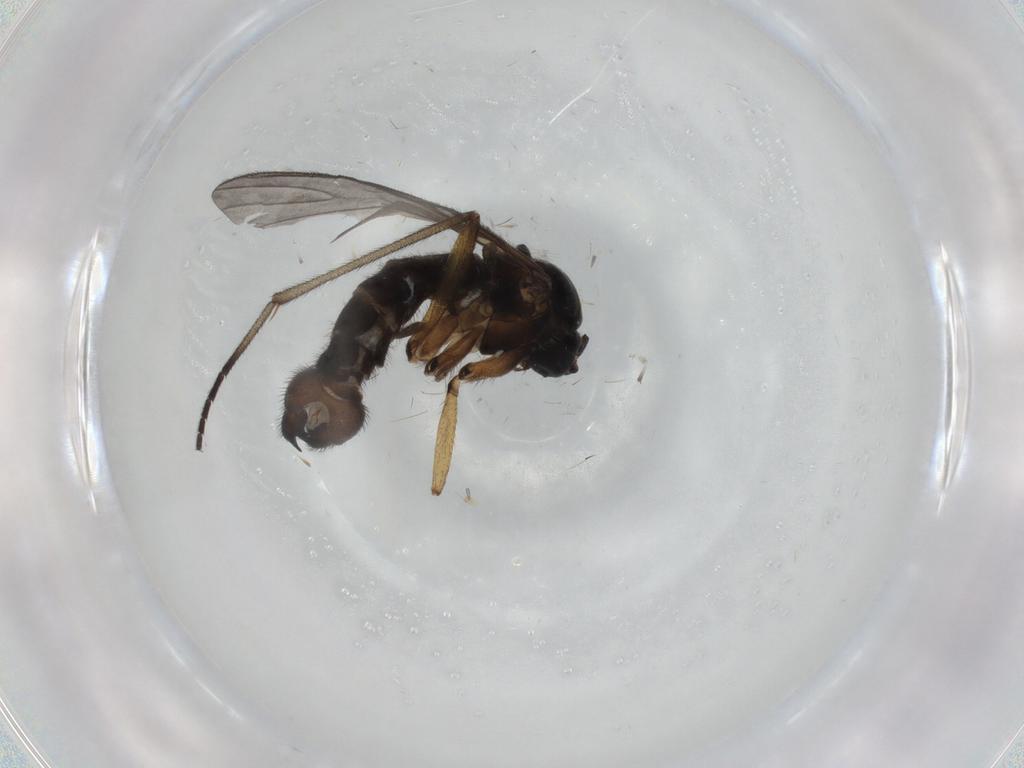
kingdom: Animalia
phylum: Arthropoda
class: Insecta
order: Diptera
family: Sciaridae
